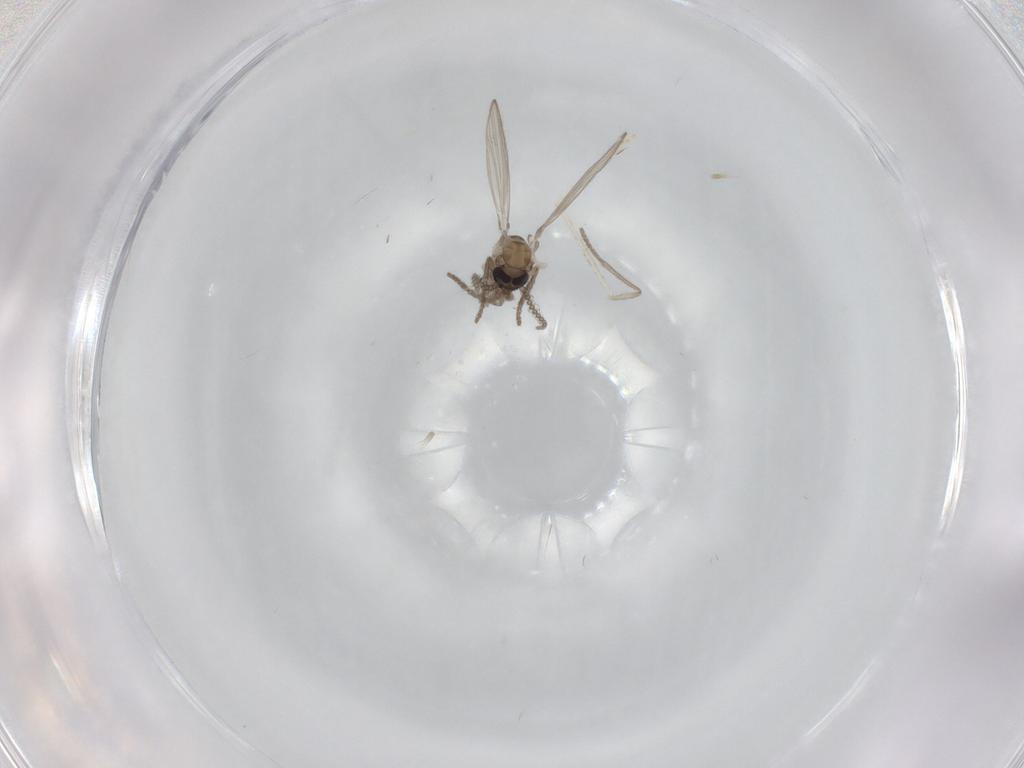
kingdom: Animalia
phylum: Arthropoda
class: Insecta
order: Diptera
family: Psychodidae
